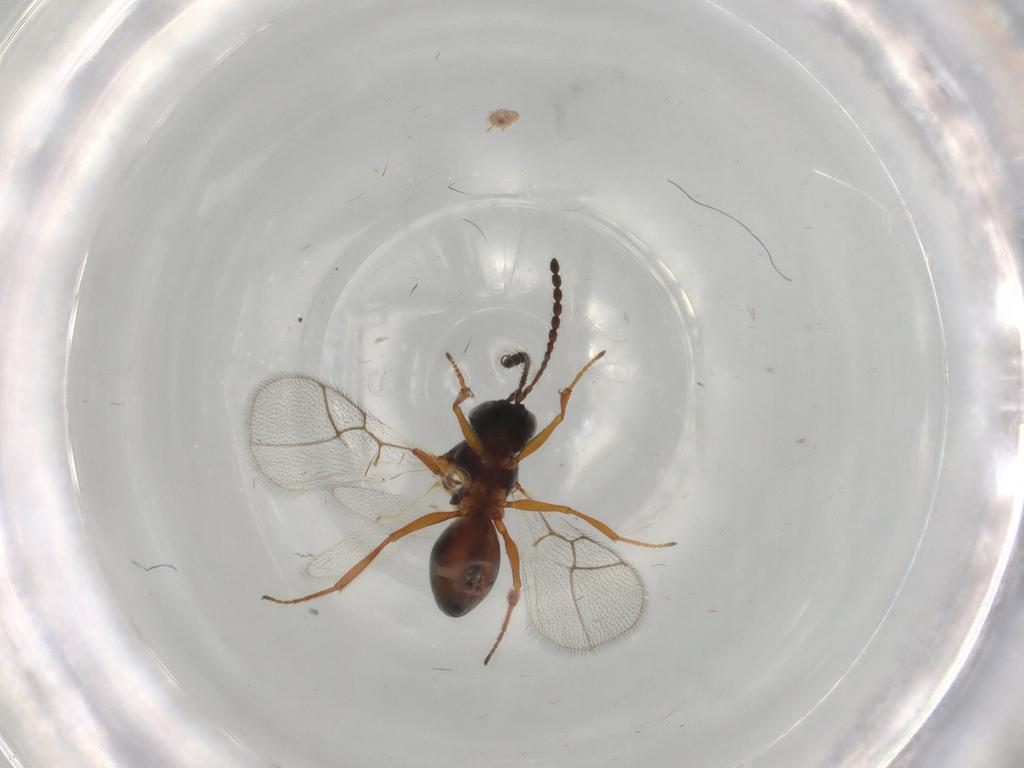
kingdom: Animalia
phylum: Arthropoda
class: Insecta
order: Hymenoptera
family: Figitidae
